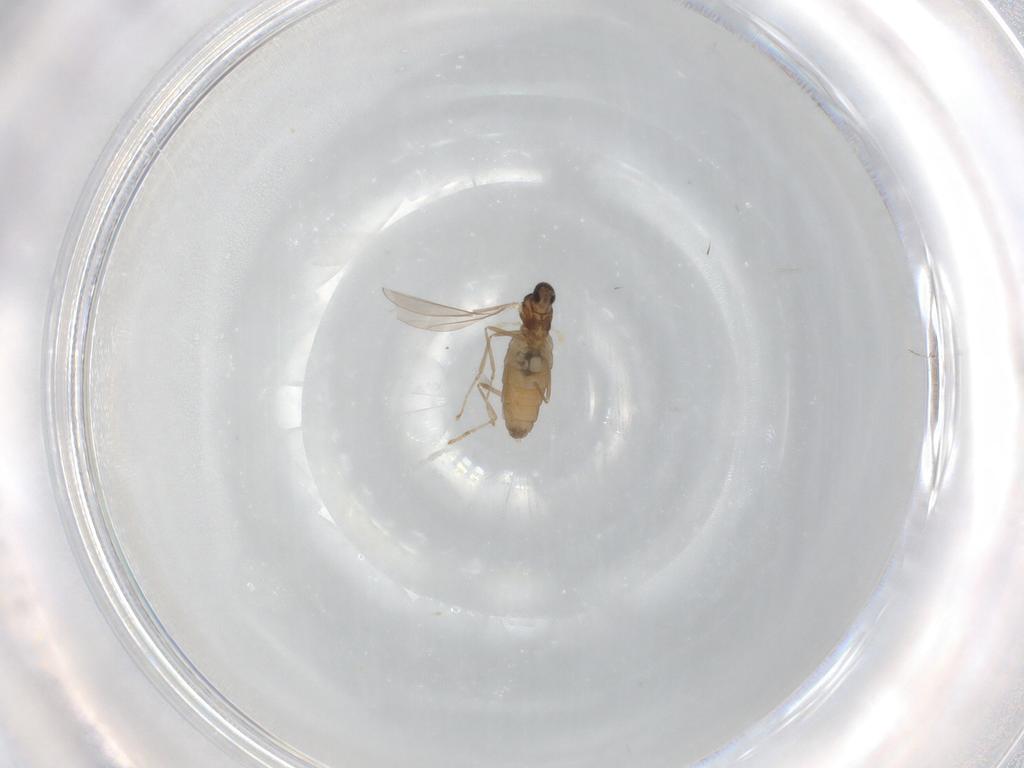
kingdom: Animalia
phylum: Arthropoda
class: Insecta
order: Diptera
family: Cecidomyiidae
